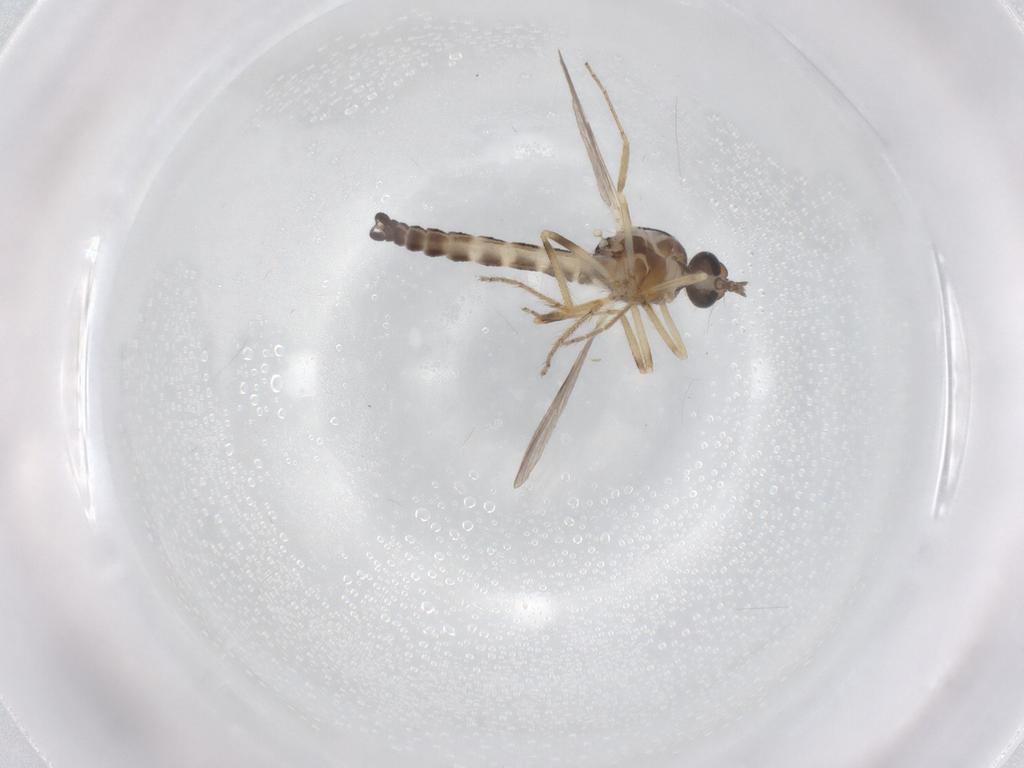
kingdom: Animalia
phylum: Arthropoda
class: Insecta
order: Diptera
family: Ceratopogonidae
